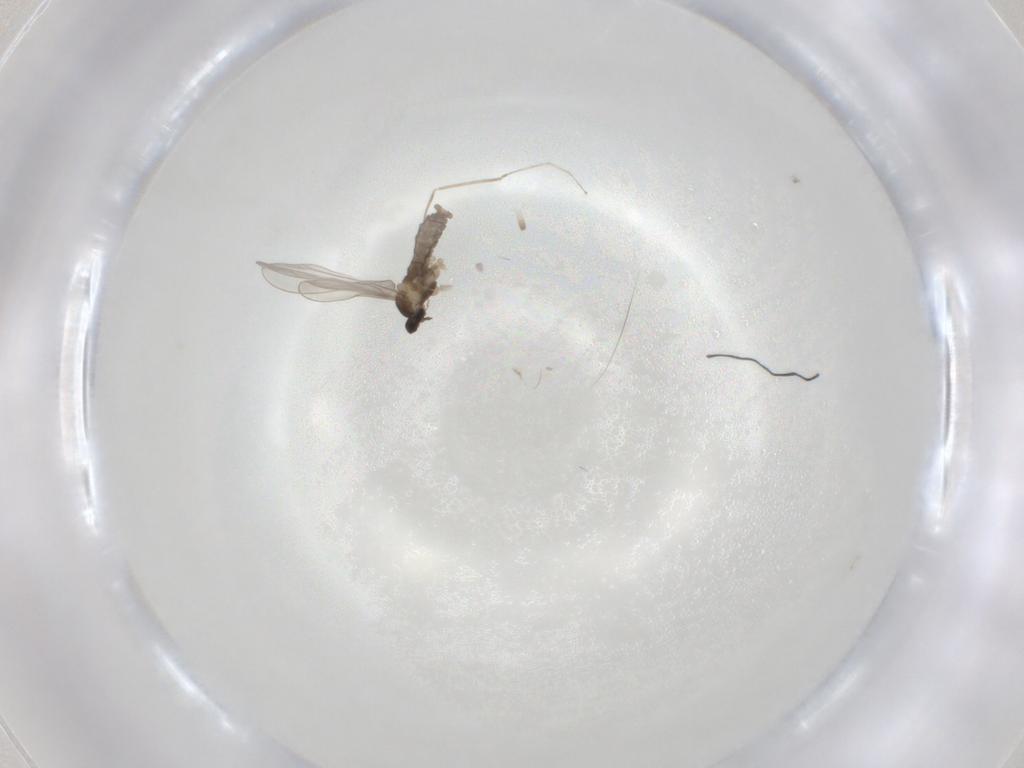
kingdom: Animalia
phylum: Arthropoda
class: Insecta
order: Diptera
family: Cecidomyiidae
